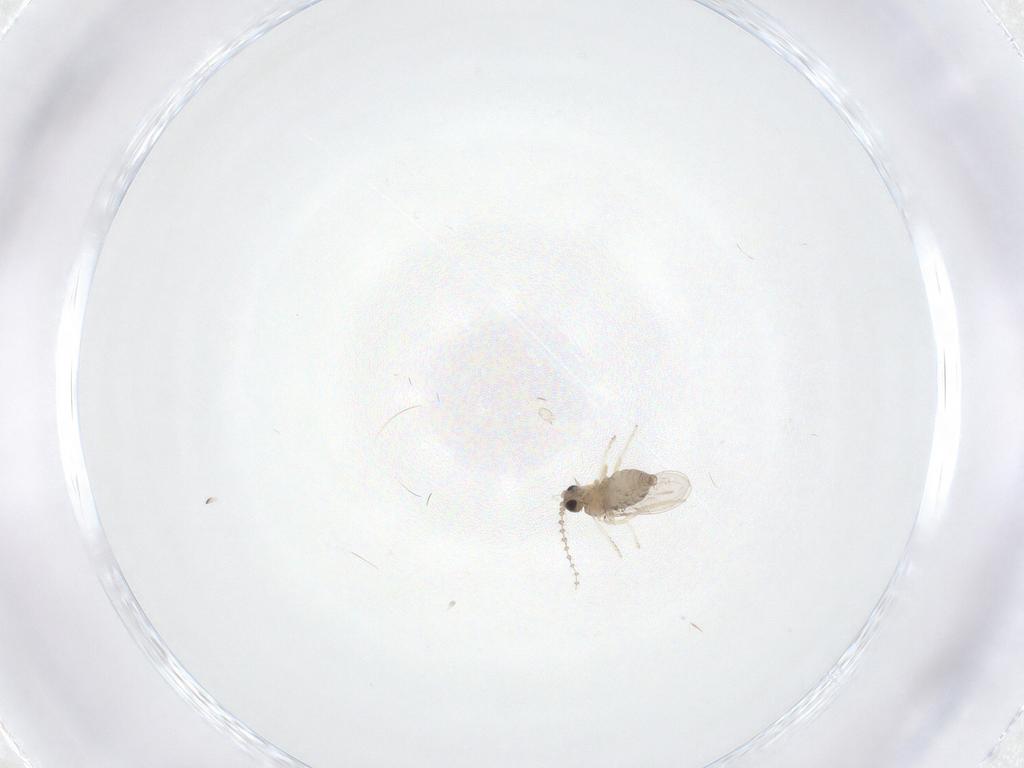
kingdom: Animalia
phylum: Arthropoda
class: Insecta
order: Diptera
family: Cecidomyiidae
